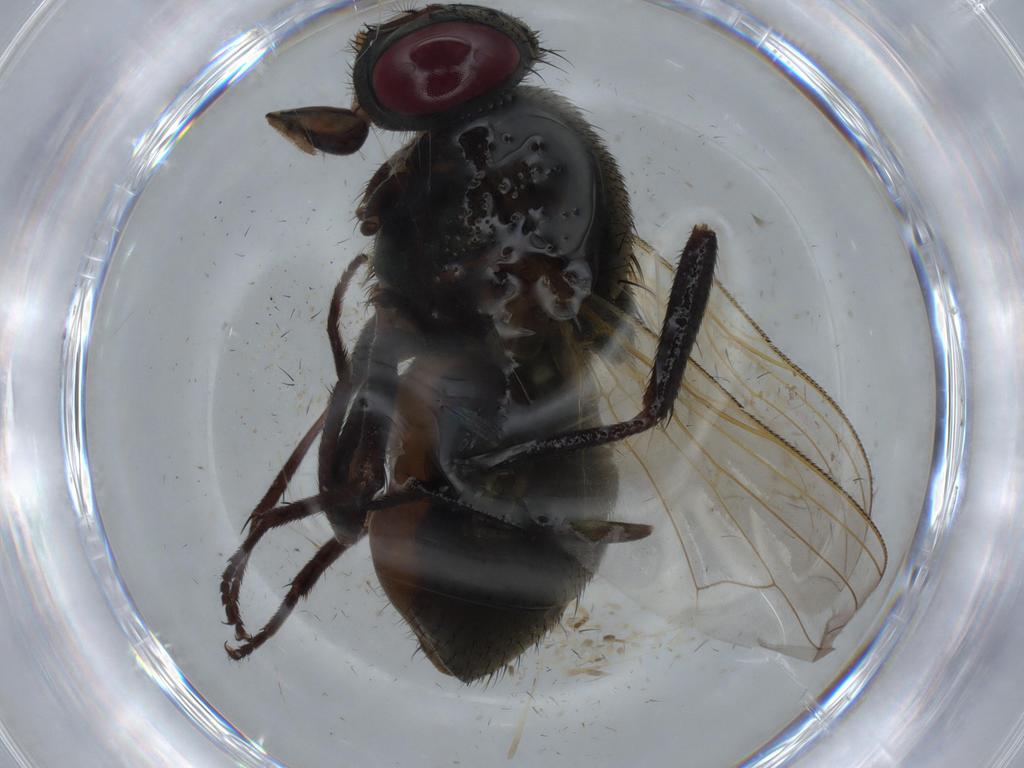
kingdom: Animalia
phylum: Arthropoda
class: Insecta
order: Diptera
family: Dolichopodidae
